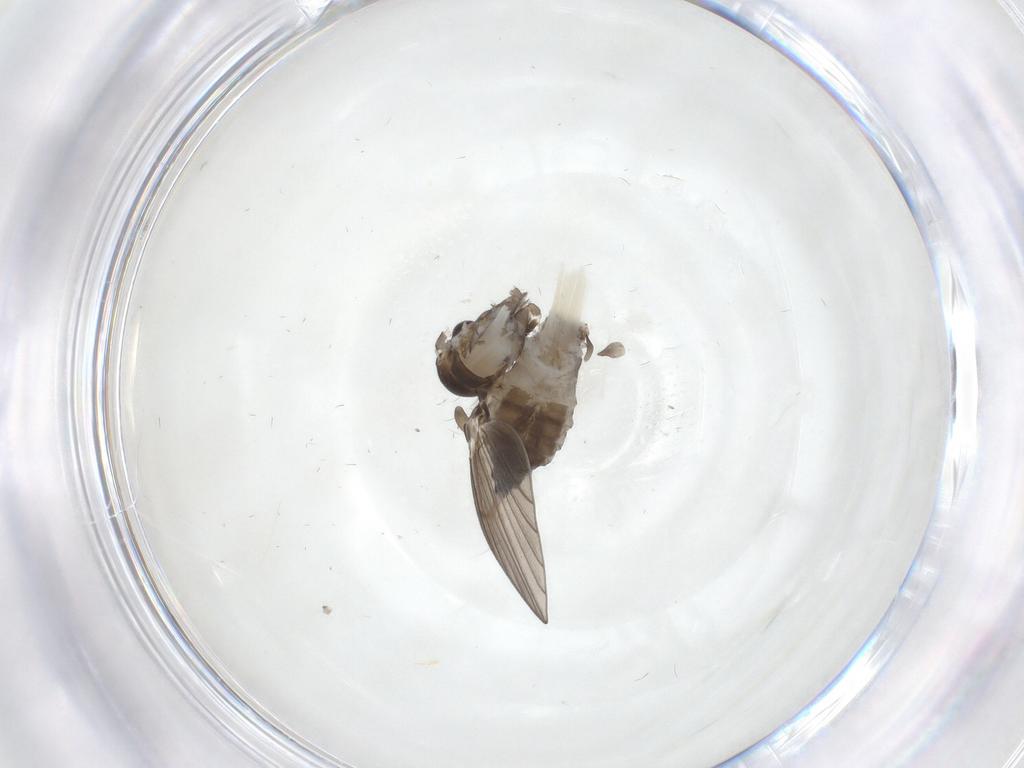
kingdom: Animalia
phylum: Arthropoda
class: Insecta
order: Diptera
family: Psychodidae
